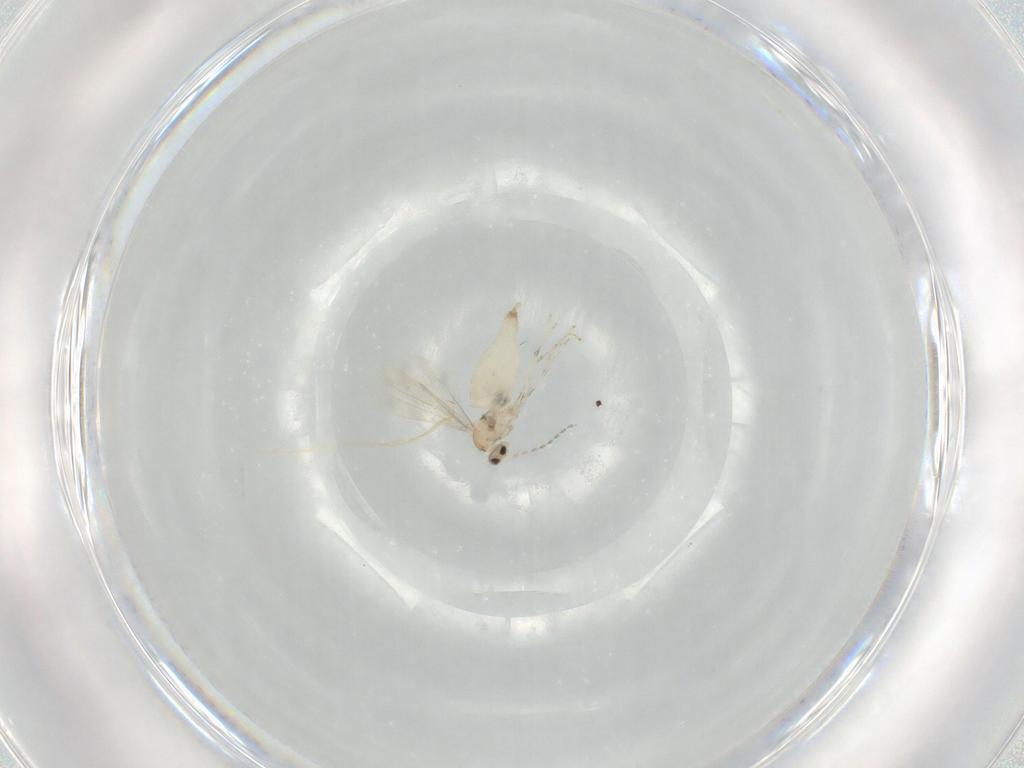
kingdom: Animalia
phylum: Arthropoda
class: Insecta
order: Diptera
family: Cecidomyiidae
